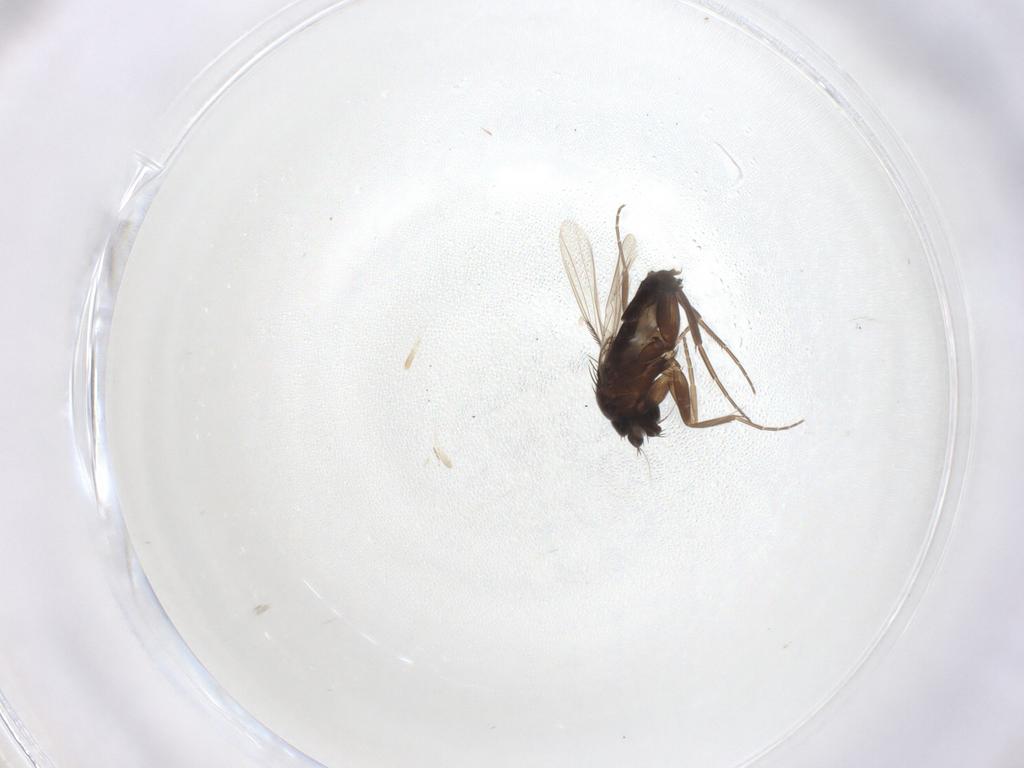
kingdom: Animalia
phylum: Arthropoda
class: Insecta
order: Diptera
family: Phoridae
